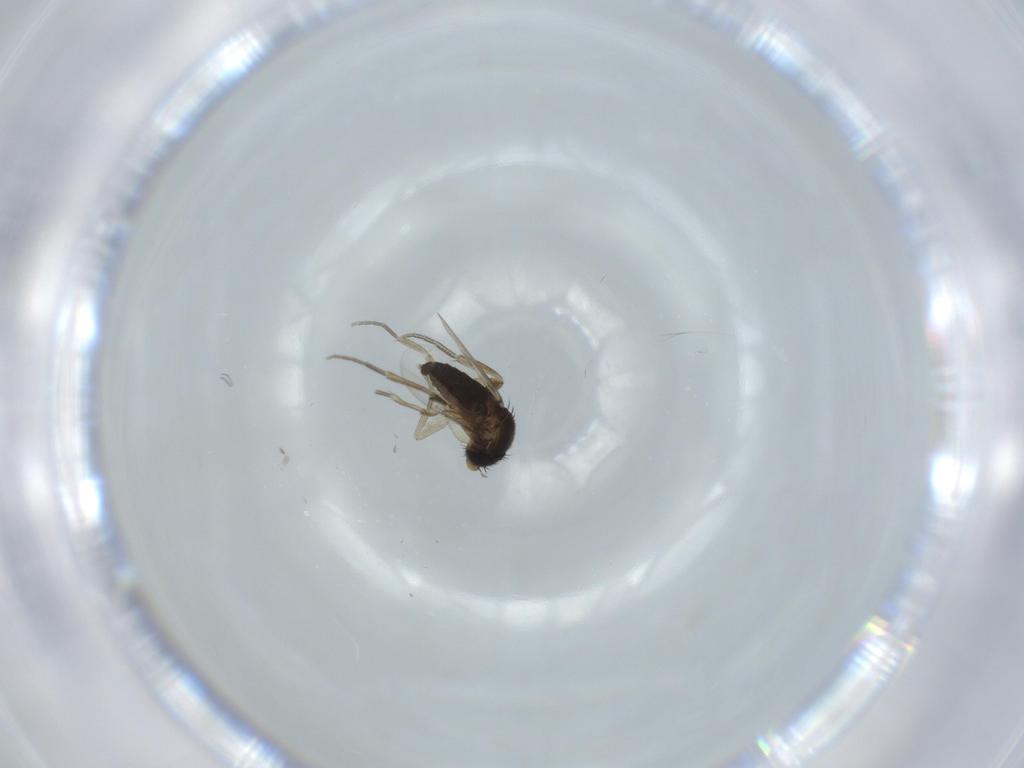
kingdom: Animalia
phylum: Arthropoda
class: Insecta
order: Diptera
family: Phoridae
